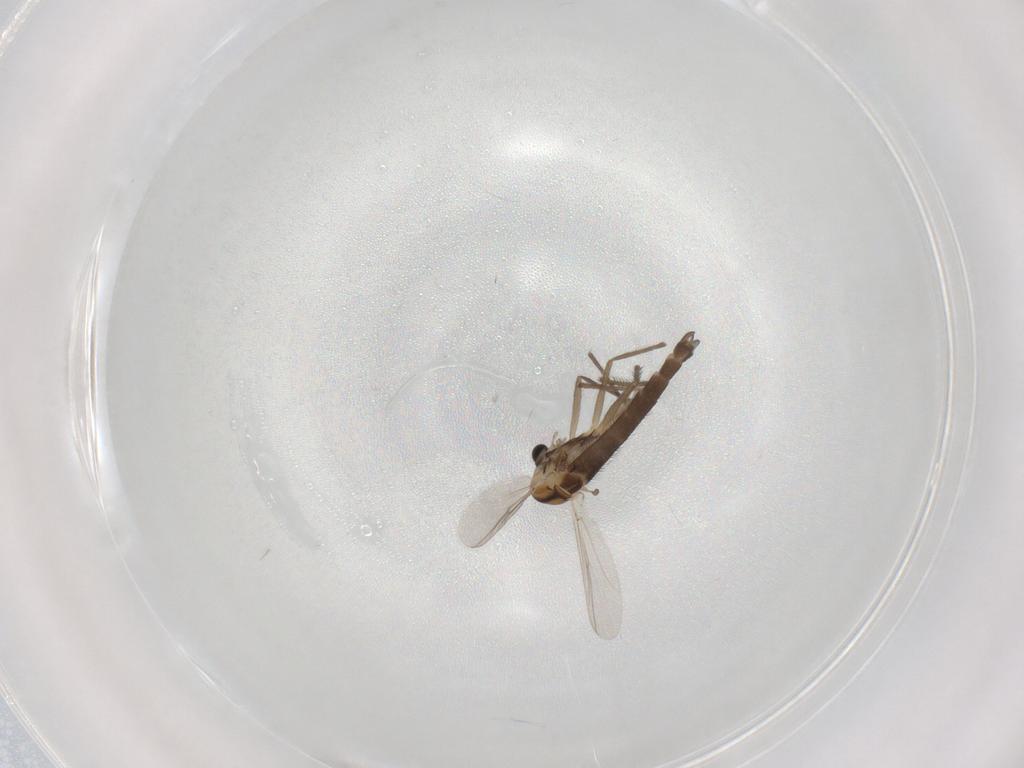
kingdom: Animalia
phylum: Arthropoda
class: Insecta
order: Diptera
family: Chironomidae
